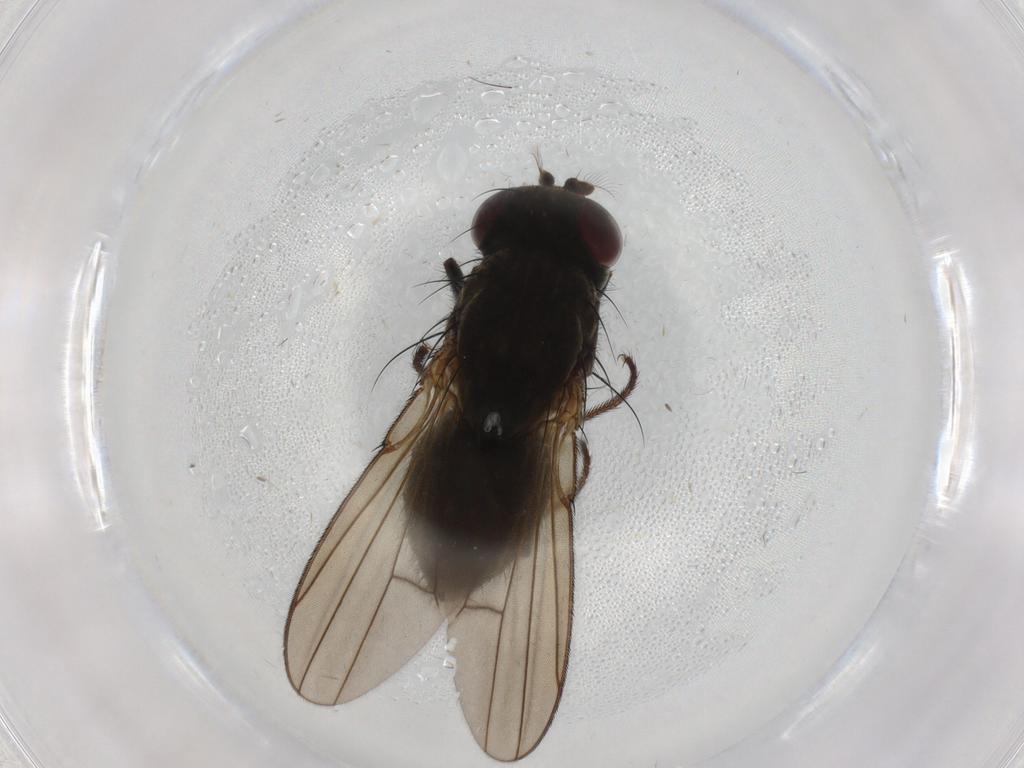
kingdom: Animalia
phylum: Arthropoda
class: Insecta
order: Diptera
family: Ephydridae
